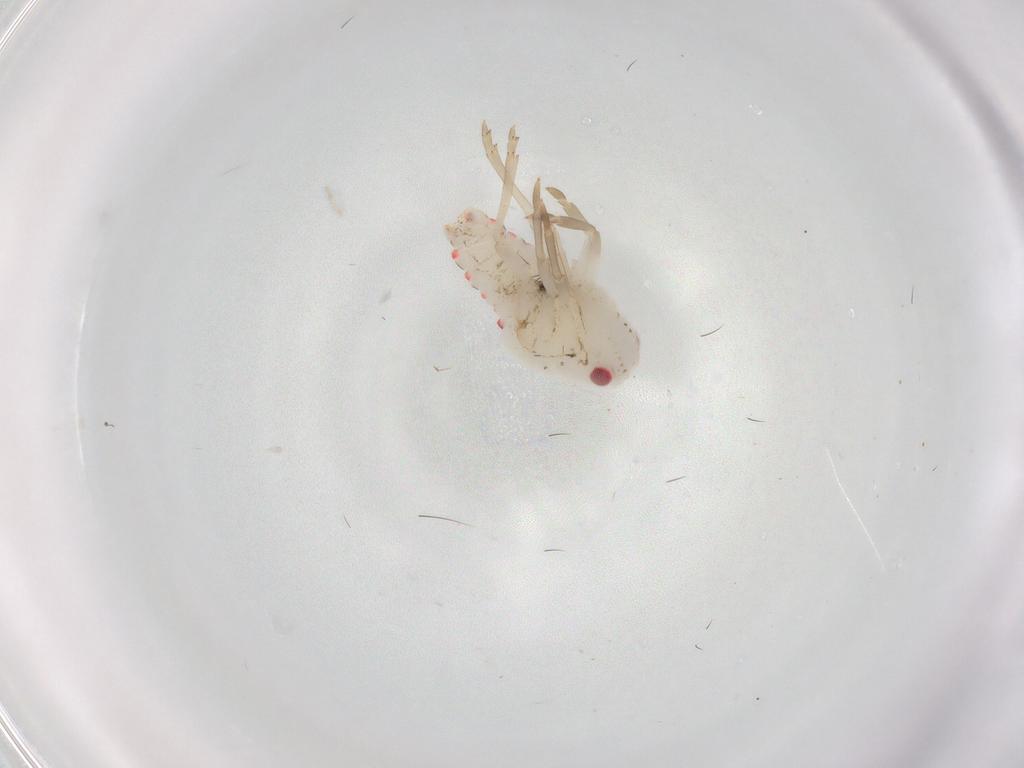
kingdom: Animalia
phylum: Arthropoda
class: Insecta
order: Hemiptera
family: Nogodinidae
